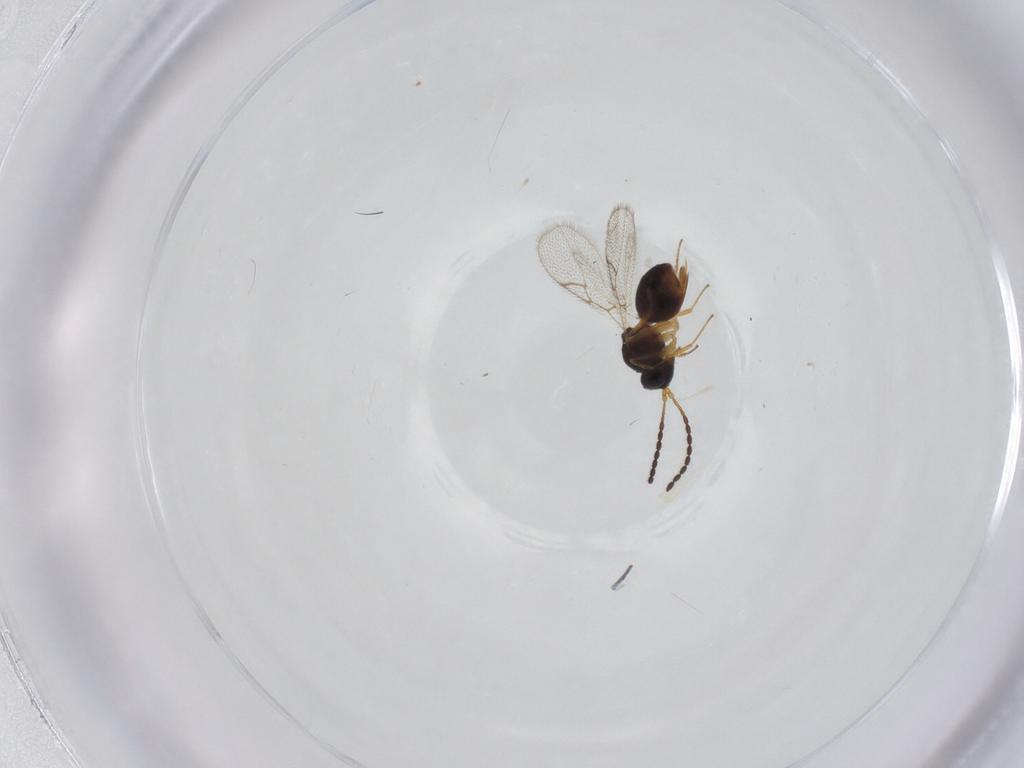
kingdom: Animalia
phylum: Arthropoda
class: Insecta
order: Hymenoptera
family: Figitidae
